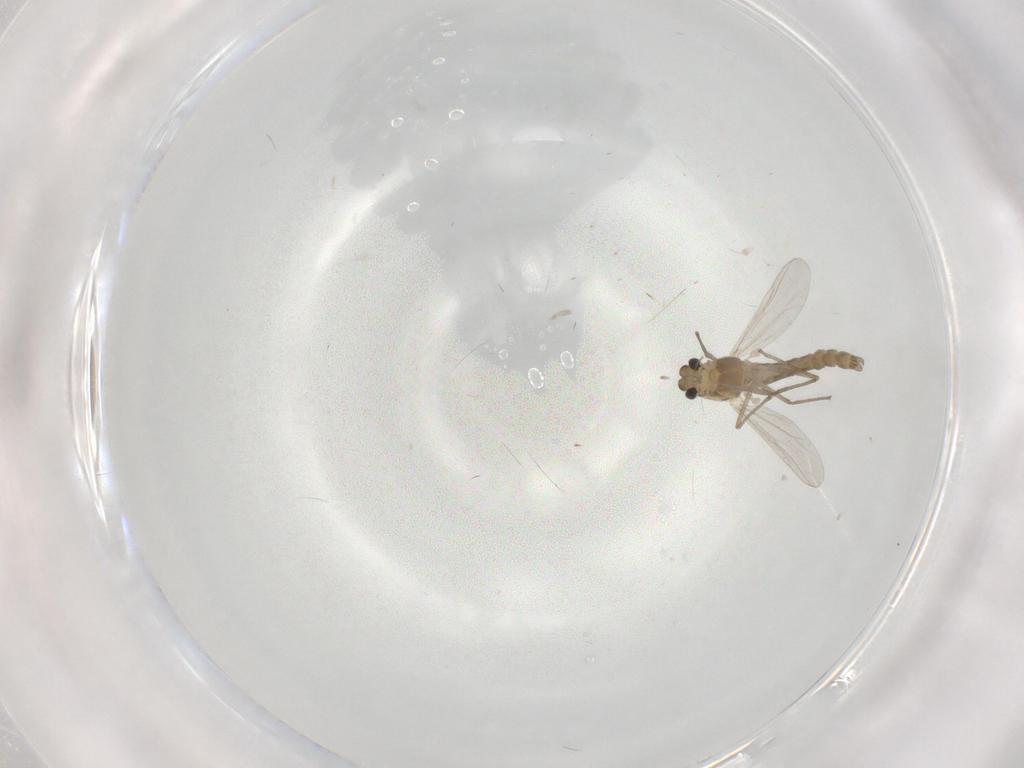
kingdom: Animalia
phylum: Arthropoda
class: Insecta
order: Diptera
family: Chironomidae
